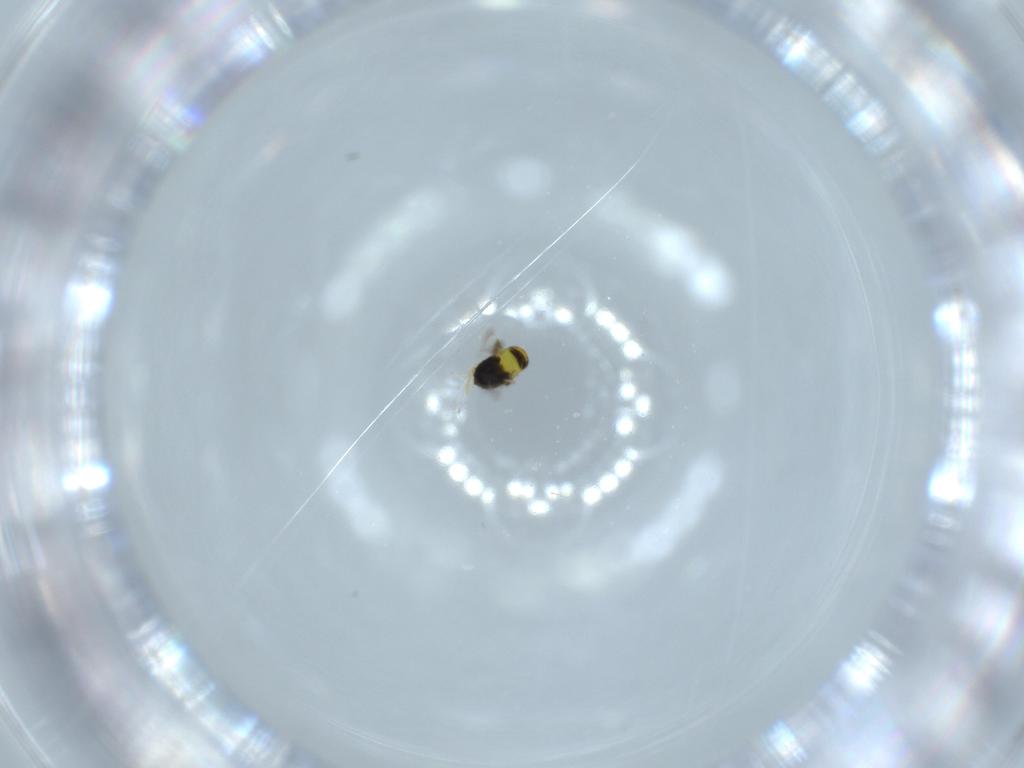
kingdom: Animalia
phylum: Arthropoda
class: Insecta
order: Hymenoptera
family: Signiphoridae
